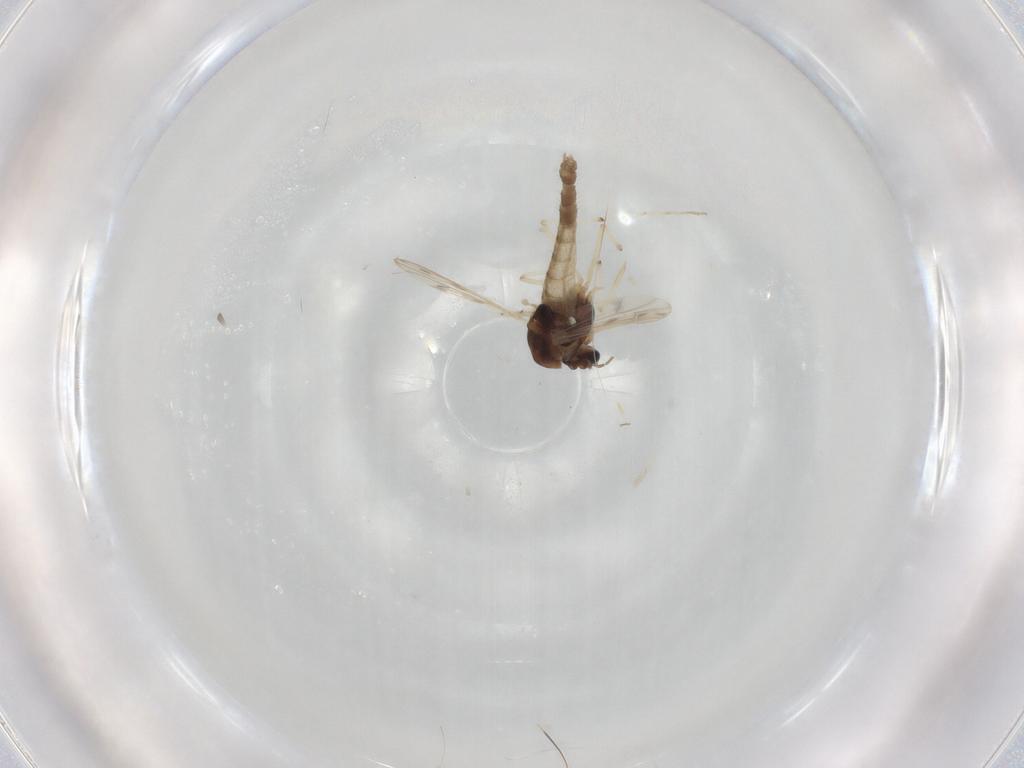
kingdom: Animalia
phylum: Arthropoda
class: Insecta
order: Diptera
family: Chironomidae
